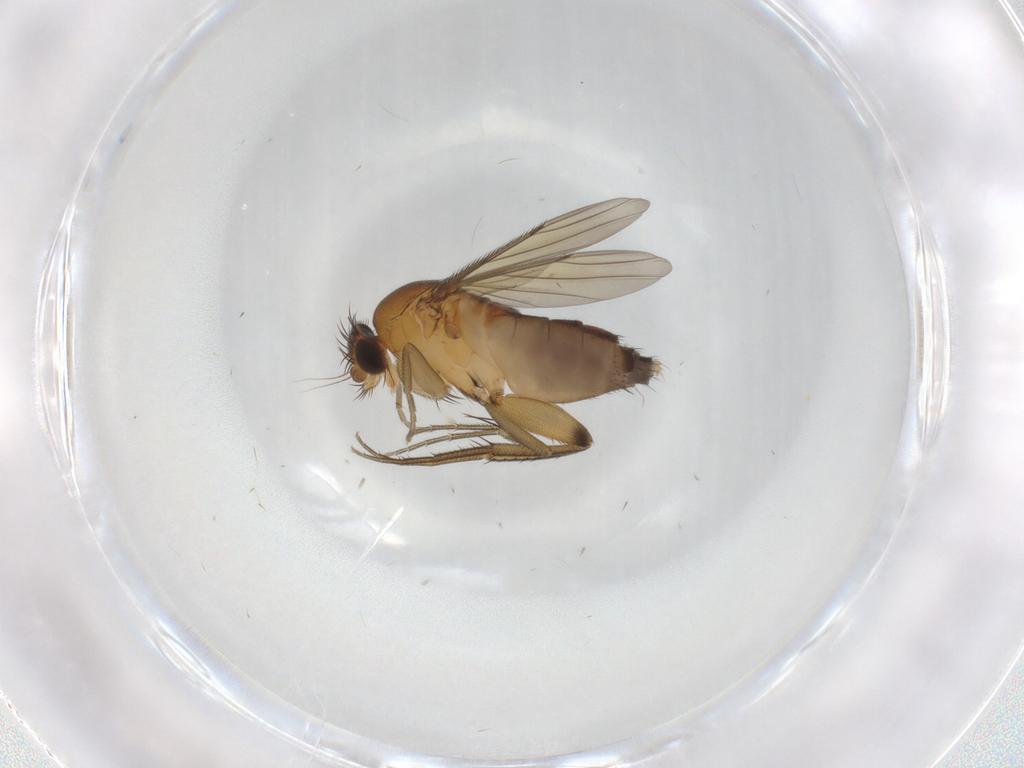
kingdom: Animalia
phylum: Arthropoda
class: Insecta
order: Diptera
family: Phoridae
